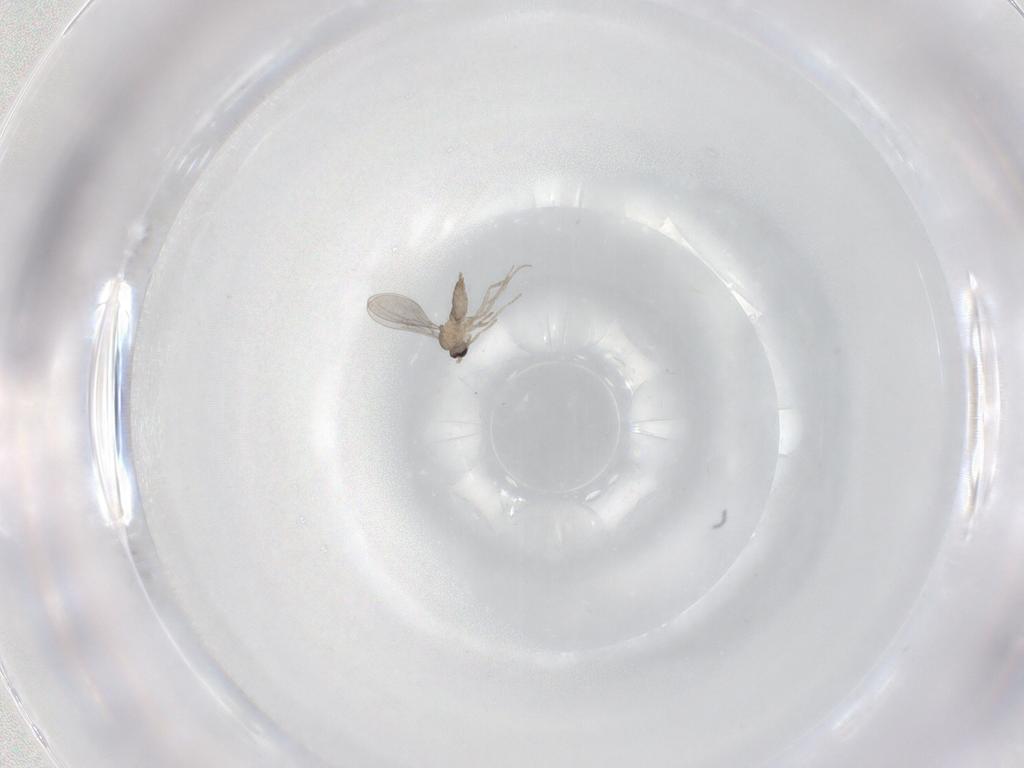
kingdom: Animalia
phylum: Arthropoda
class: Insecta
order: Diptera
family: Cecidomyiidae
